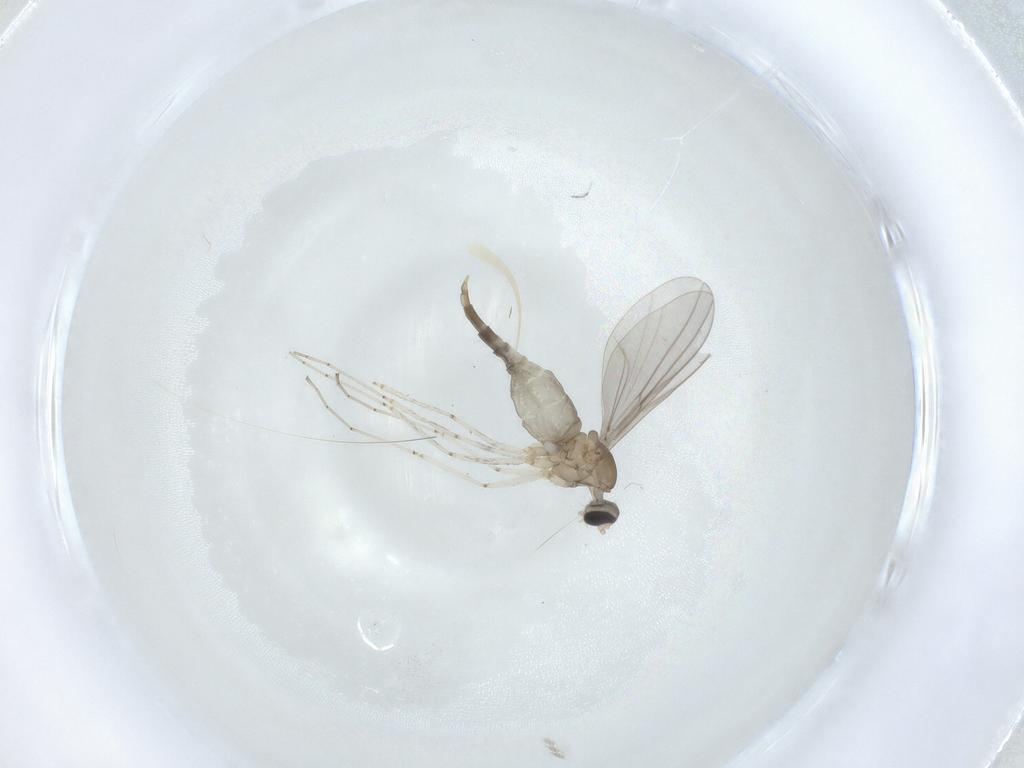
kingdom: Animalia
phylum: Arthropoda
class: Insecta
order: Diptera
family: Cecidomyiidae
